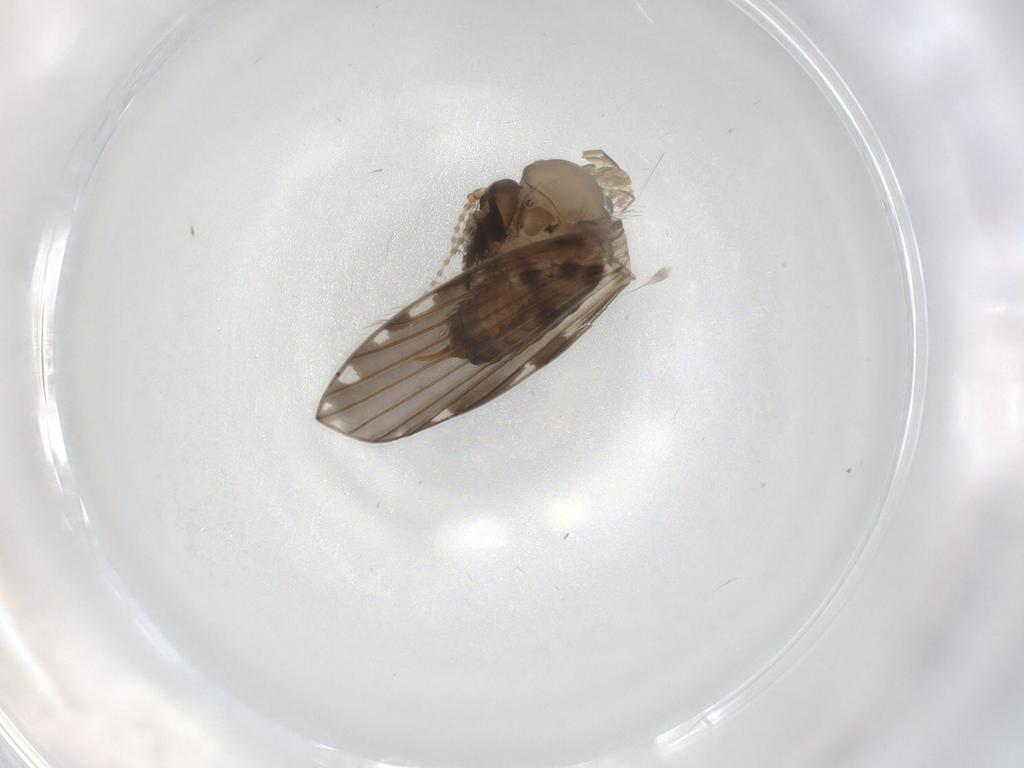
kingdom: Animalia
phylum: Arthropoda
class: Insecta
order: Diptera
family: Psychodidae
